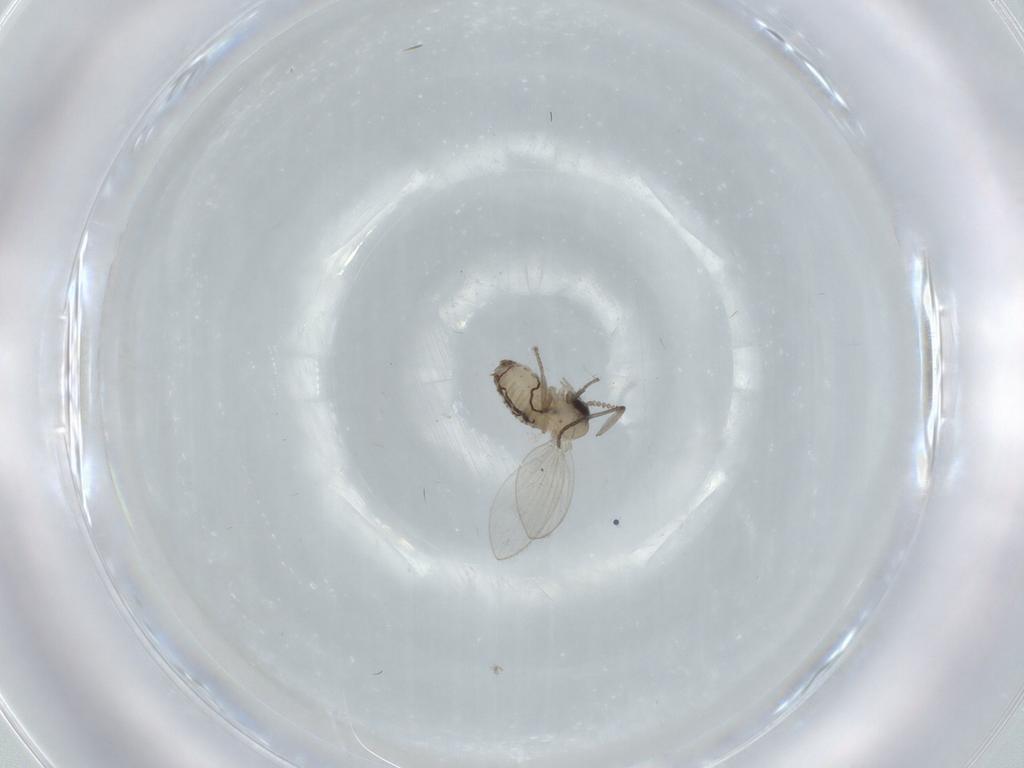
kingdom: Animalia
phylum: Arthropoda
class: Insecta
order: Diptera
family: Psychodidae
